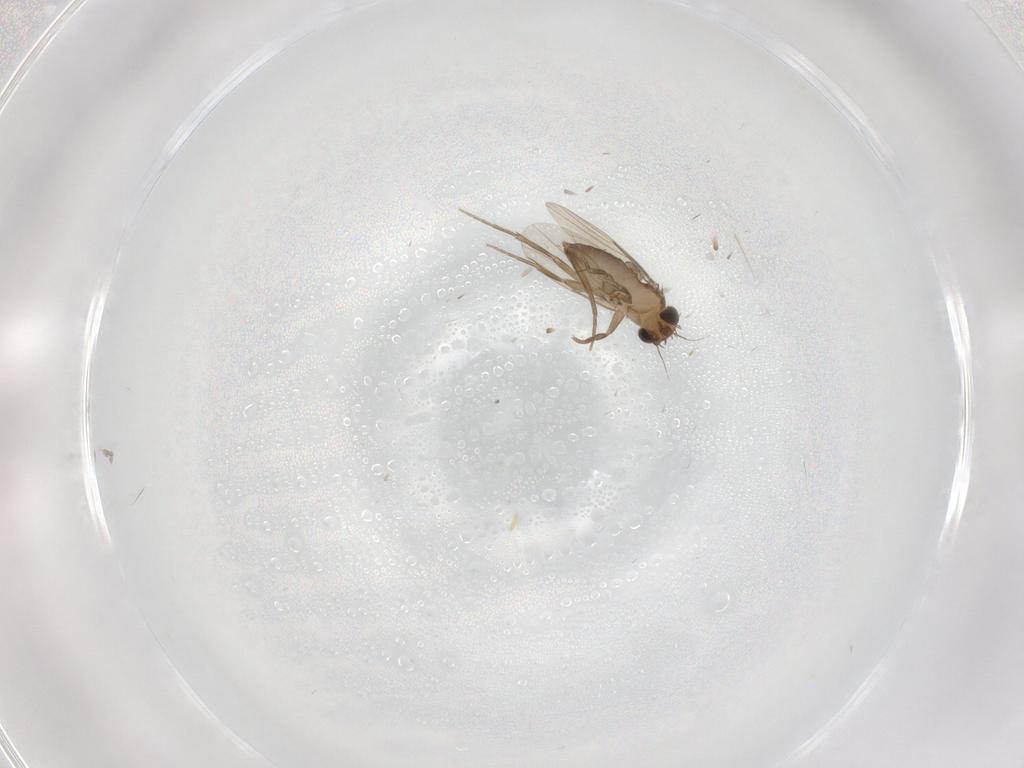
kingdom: Animalia
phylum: Arthropoda
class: Insecta
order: Diptera
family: Phoridae
